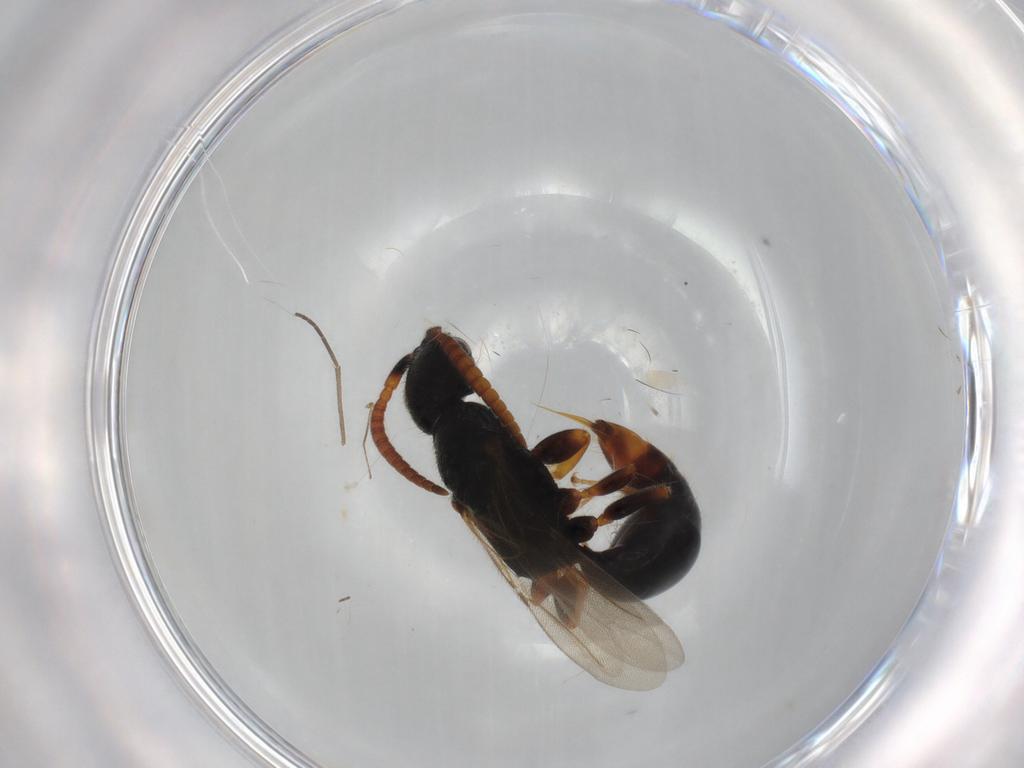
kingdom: Animalia
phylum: Arthropoda
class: Insecta
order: Hymenoptera
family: Bethylidae
